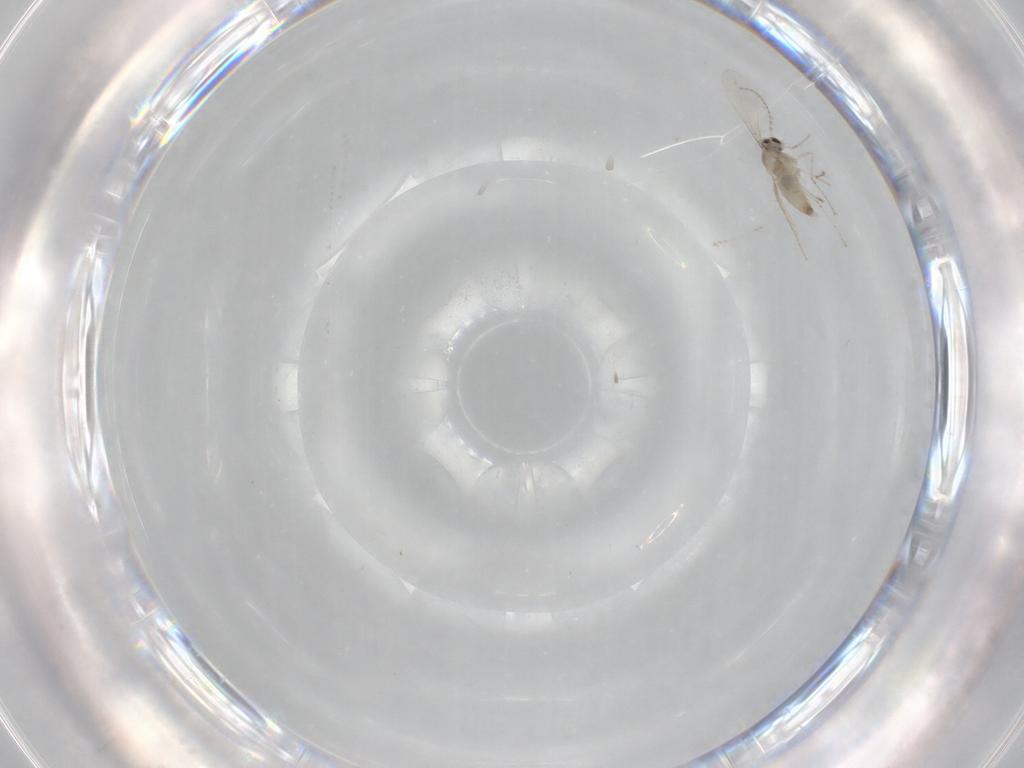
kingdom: Animalia
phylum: Arthropoda
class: Insecta
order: Diptera
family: Cecidomyiidae
